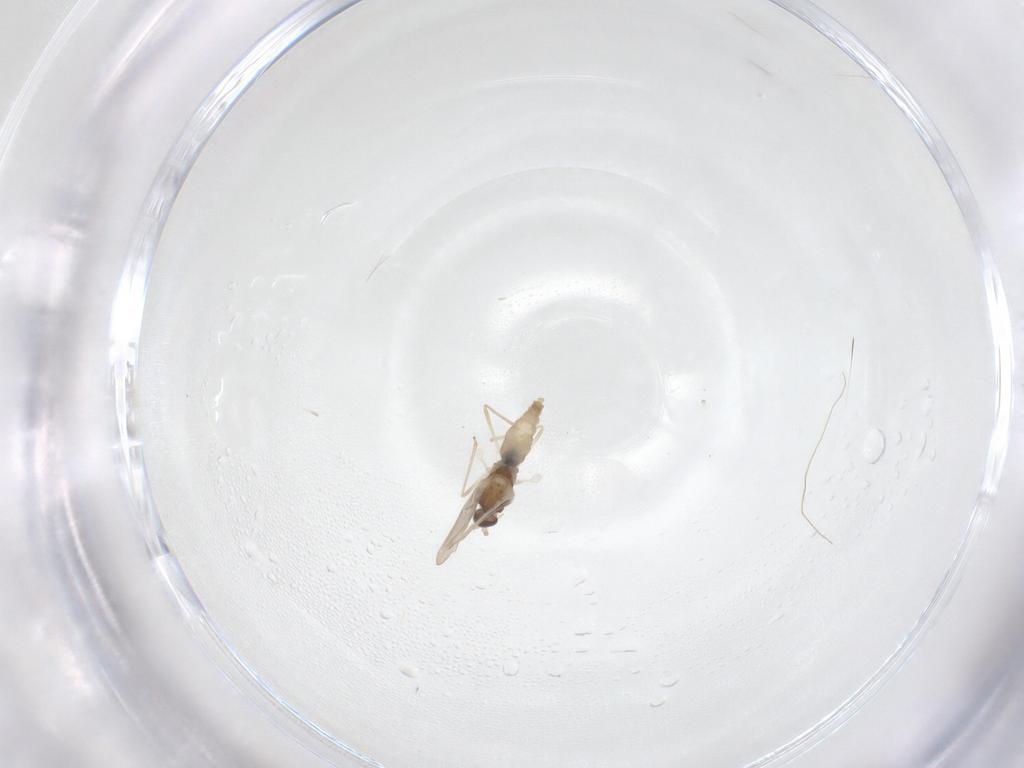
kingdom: Animalia
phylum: Arthropoda
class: Insecta
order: Diptera
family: Cecidomyiidae
